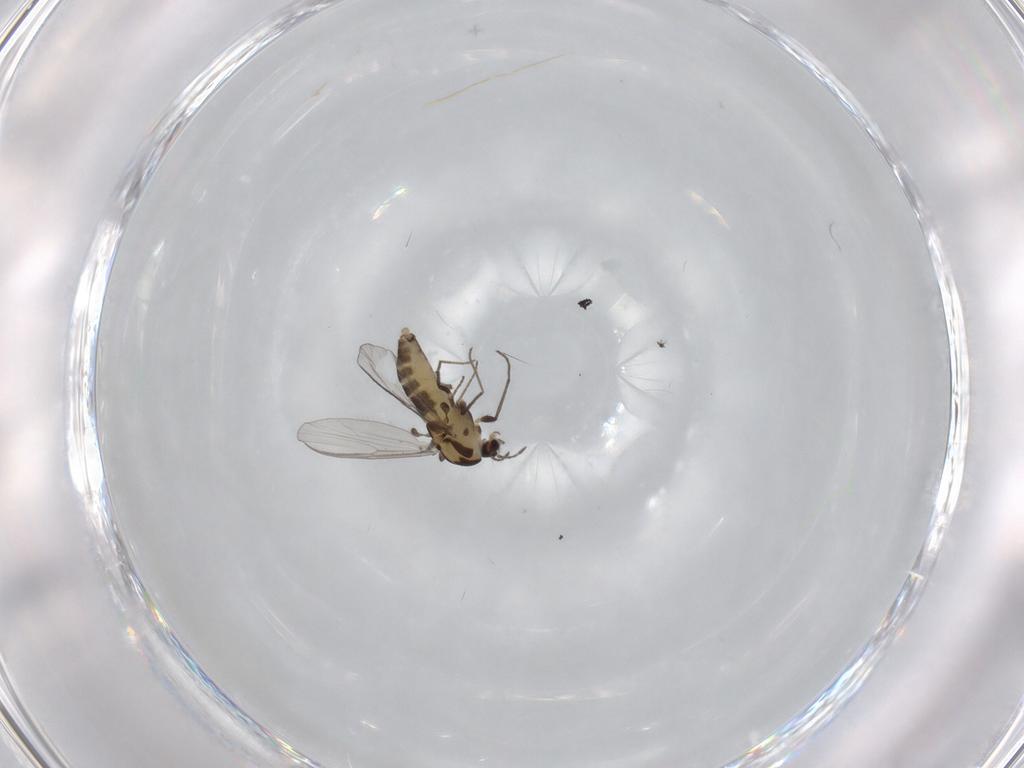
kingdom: Animalia
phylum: Arthropoda
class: Insecta
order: Diptera
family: Chironomidae
